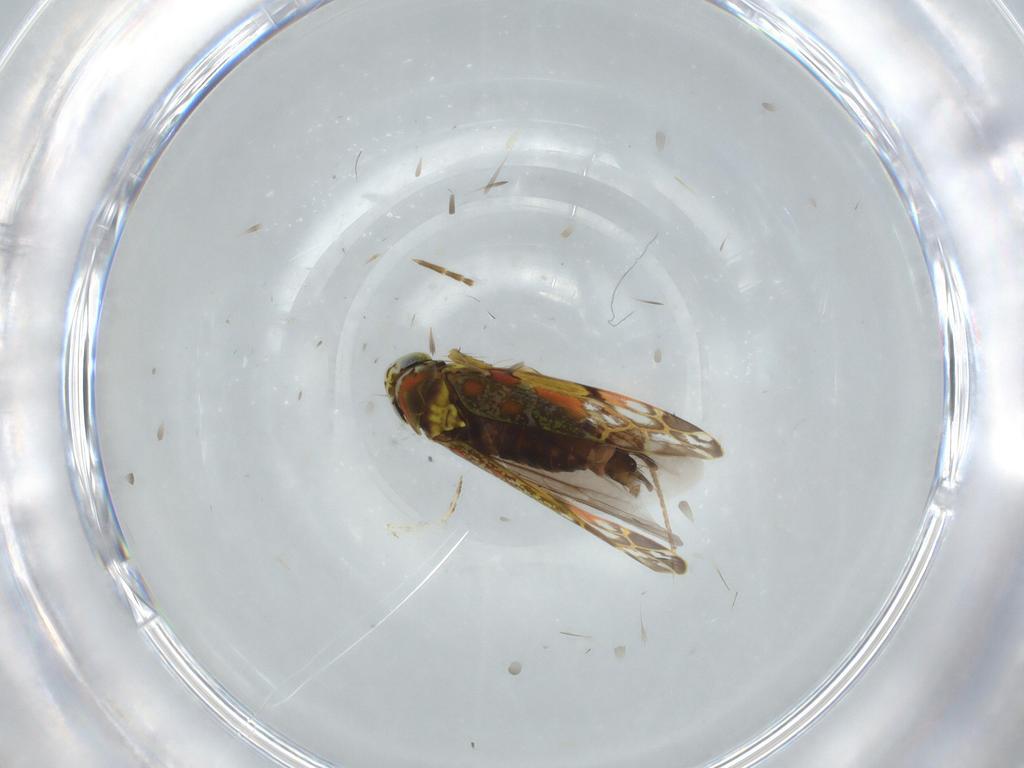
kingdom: Animalia
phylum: Arthropoda
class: Insecta
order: Hemiptera
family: Cicadellidae
